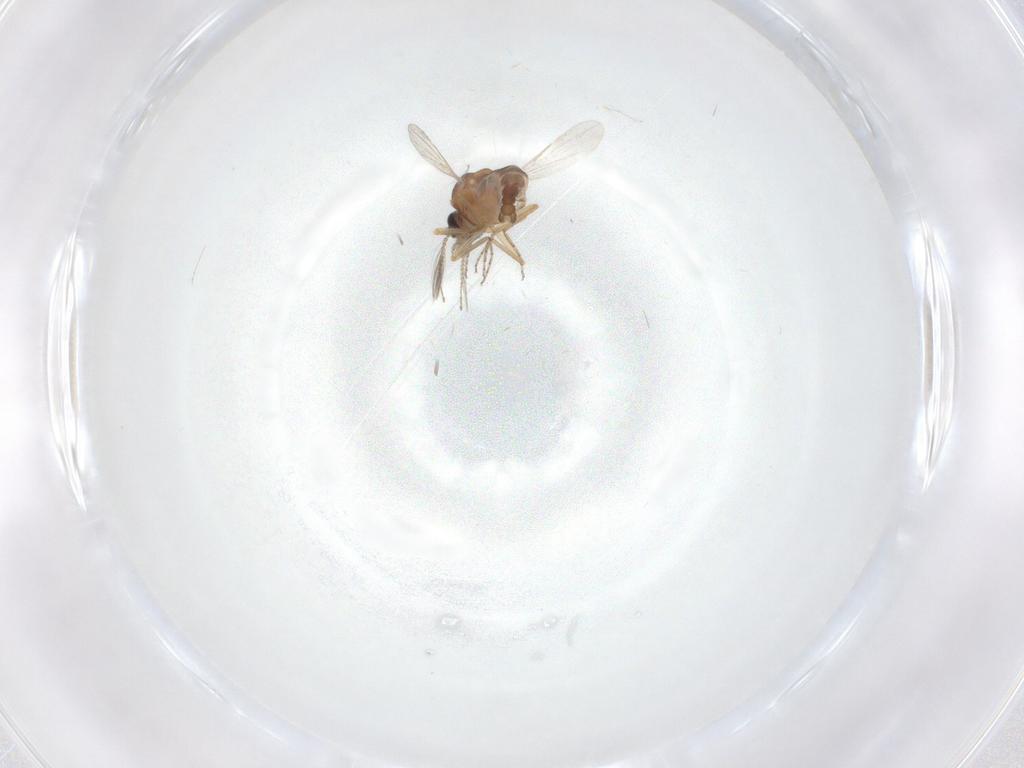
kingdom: Animalia
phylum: Arthropoda
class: Insecta
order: Diptera
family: Ceratopogonidae
